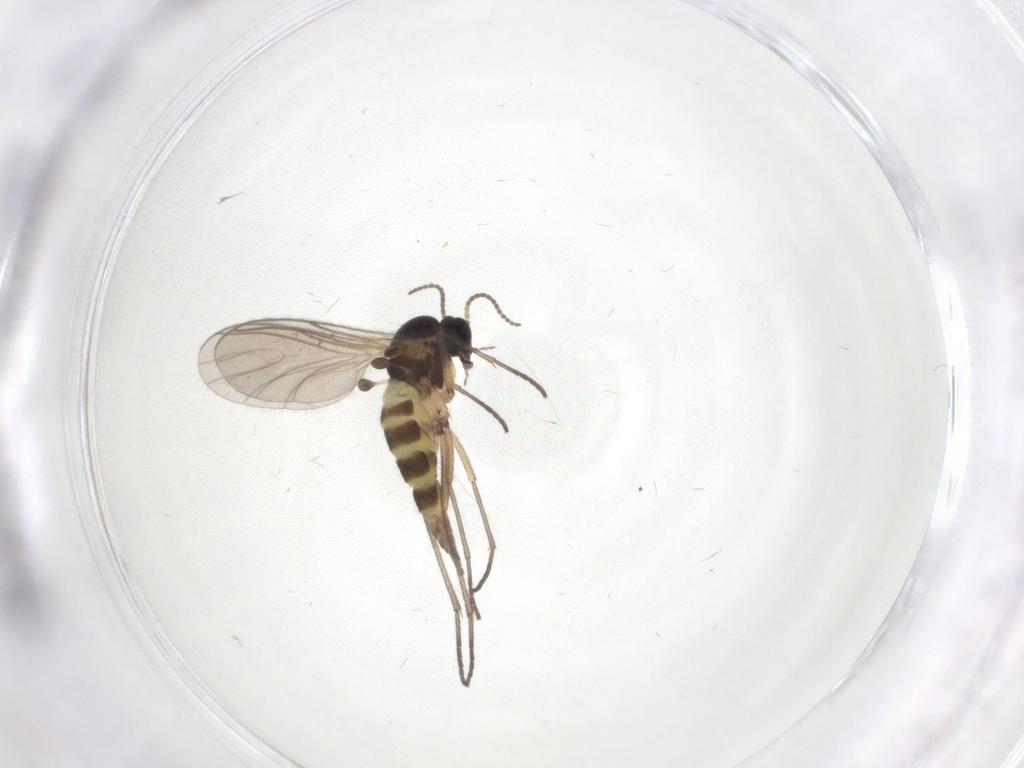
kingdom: Animalia
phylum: Arthropoda
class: Insecta
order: Diptera
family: Sciaridae
